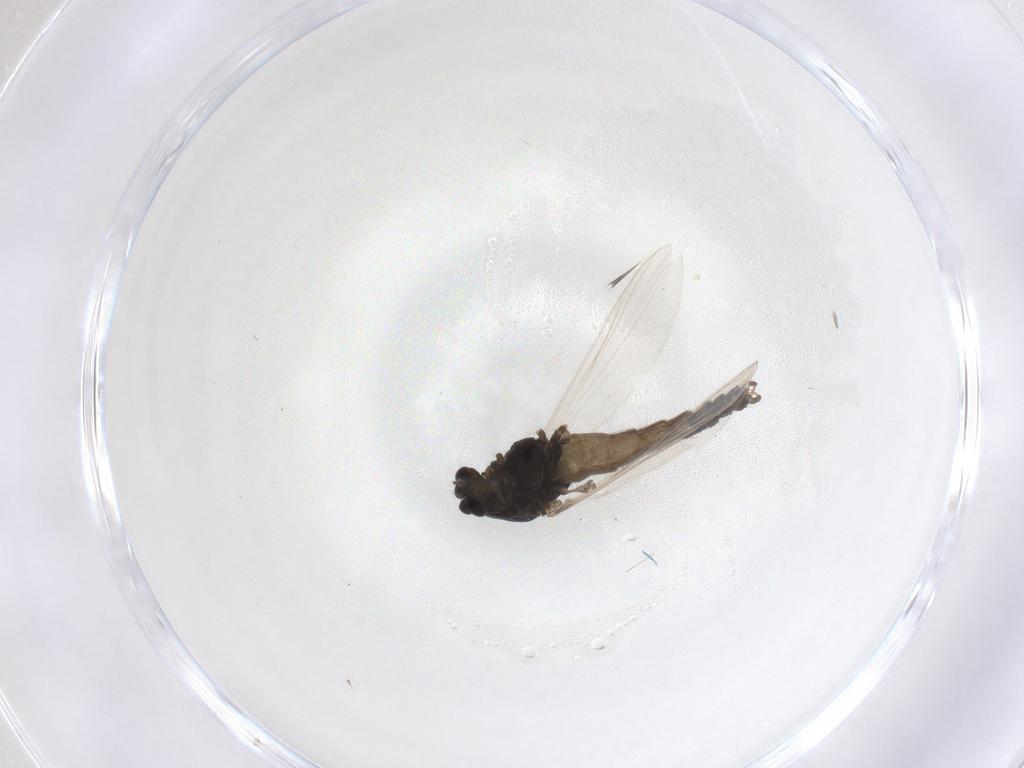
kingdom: Animalia
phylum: Arthropoda
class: Insecta
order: Diptera
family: Chironomidae
